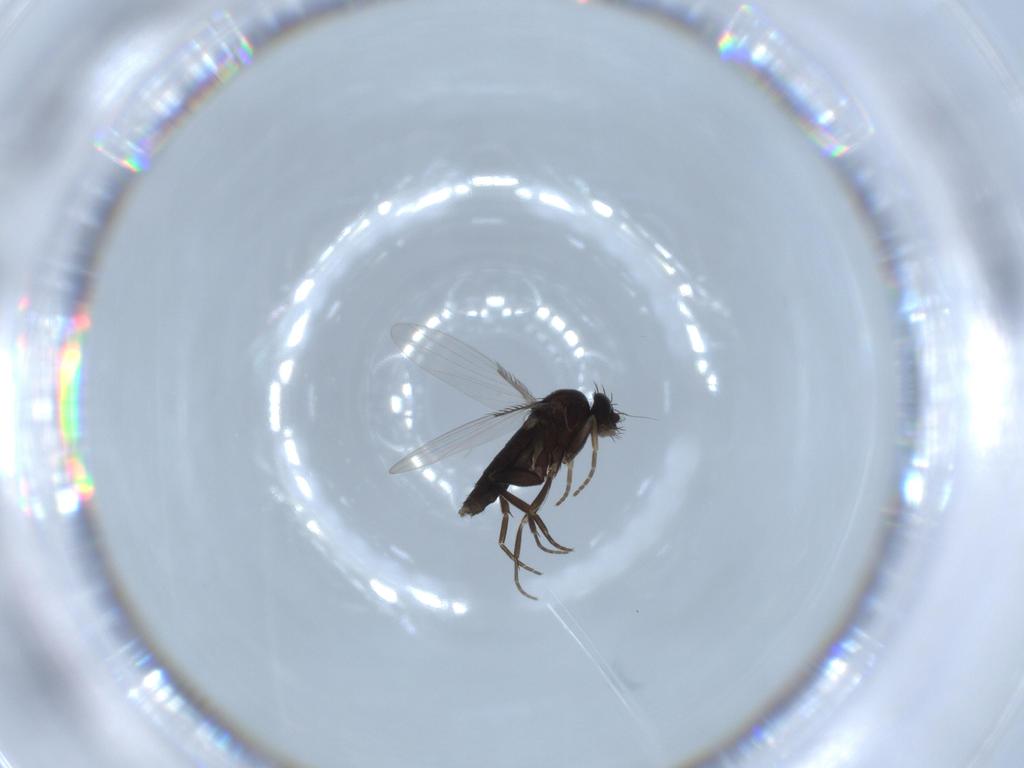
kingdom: Animalia
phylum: Arthropoda
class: Insecta
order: Diptera
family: Phoridae
